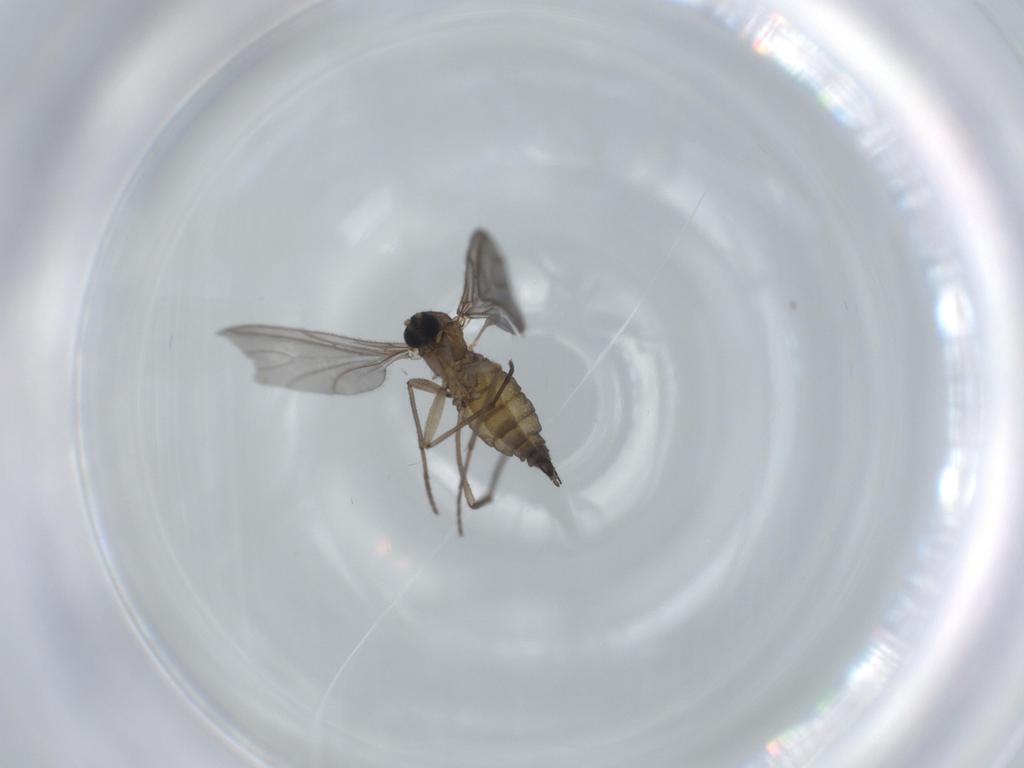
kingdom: Animalia
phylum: Arthropoda
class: Insecta
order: Diptera
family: Sciaridae
